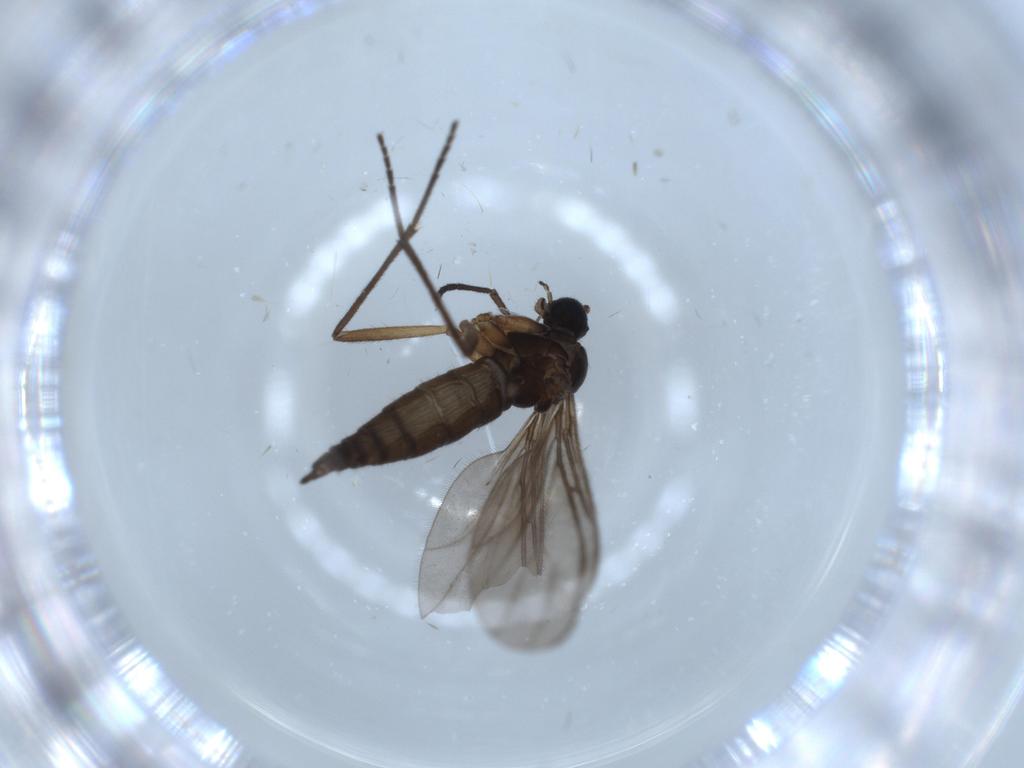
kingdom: Animalia
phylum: Arthropoda
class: Insecta
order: Diptera
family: Sciaridae
